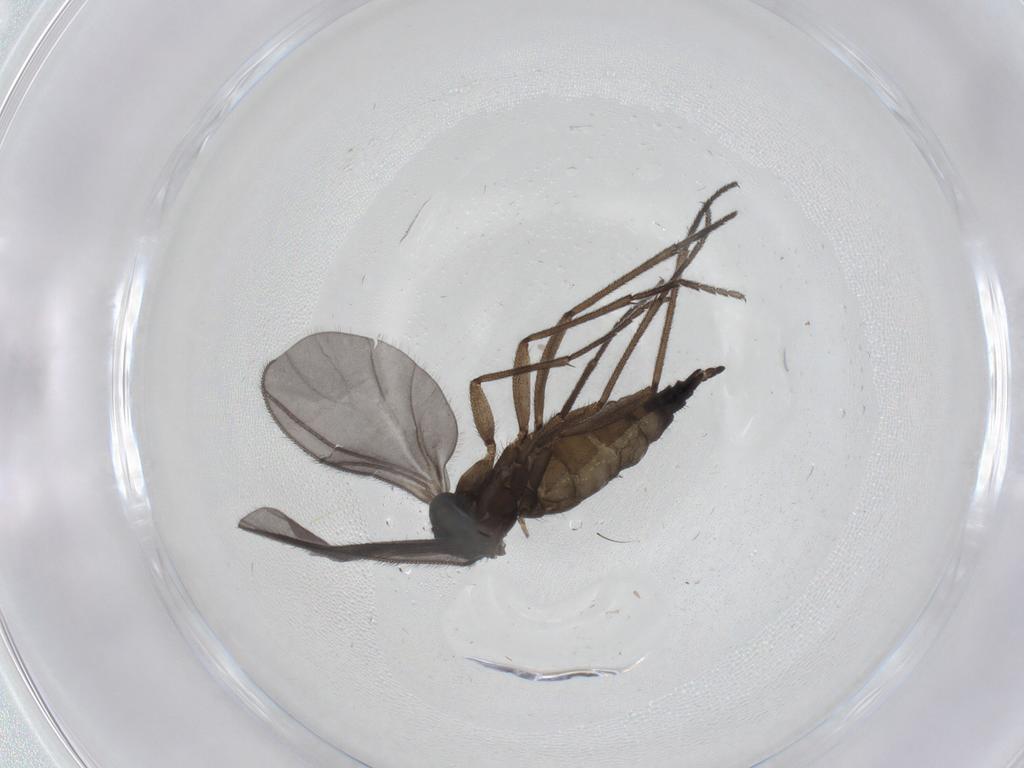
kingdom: Animalia
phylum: Arthropoda
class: Insecta
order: Diptera
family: Sciaridae
